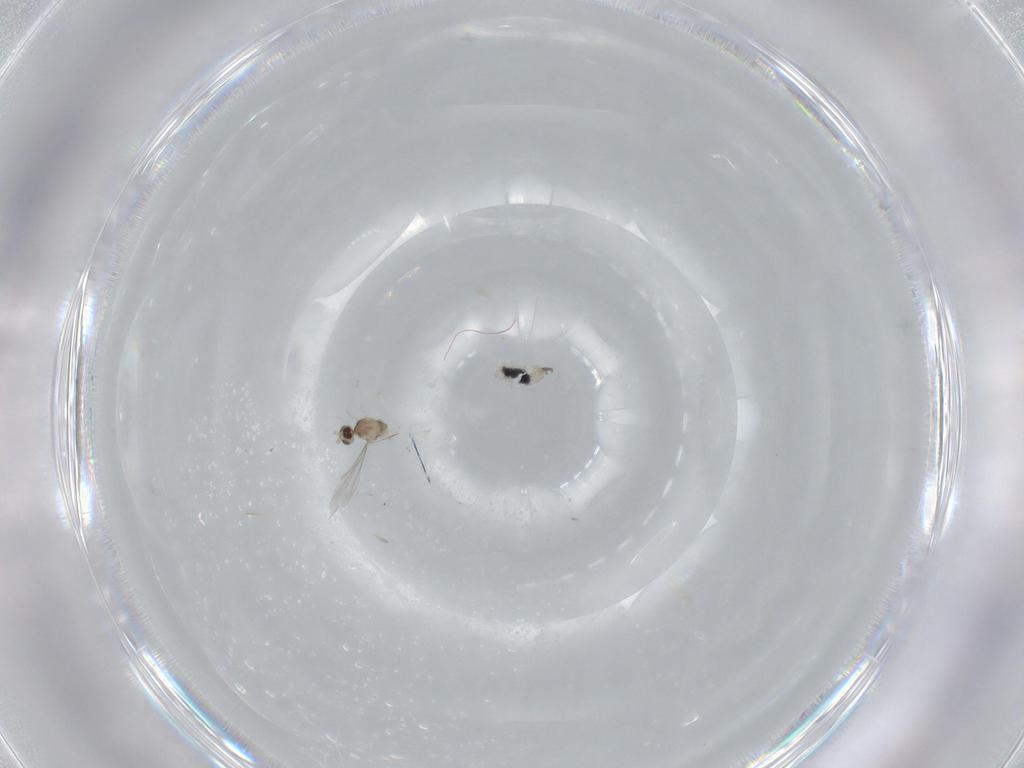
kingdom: Animalia
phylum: Arthropoda
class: Insecta
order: Diptera
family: Cecidomyiidae
